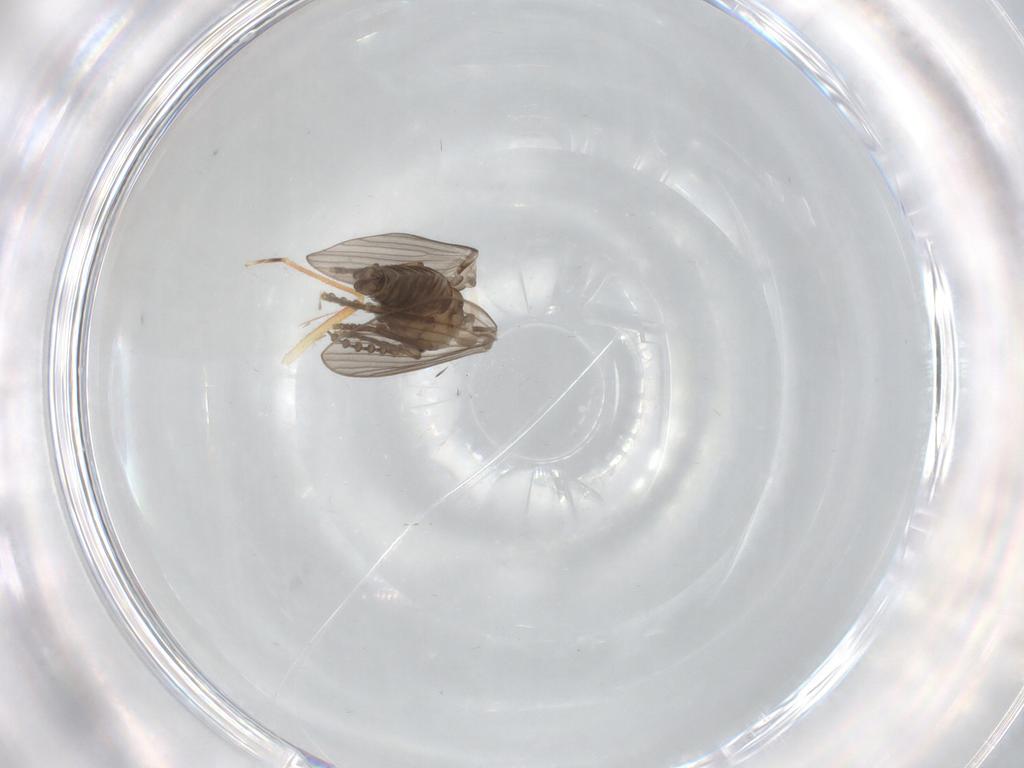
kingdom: Animalia
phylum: Arthropoda
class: Insecta
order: Diptera
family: Psychodidae
